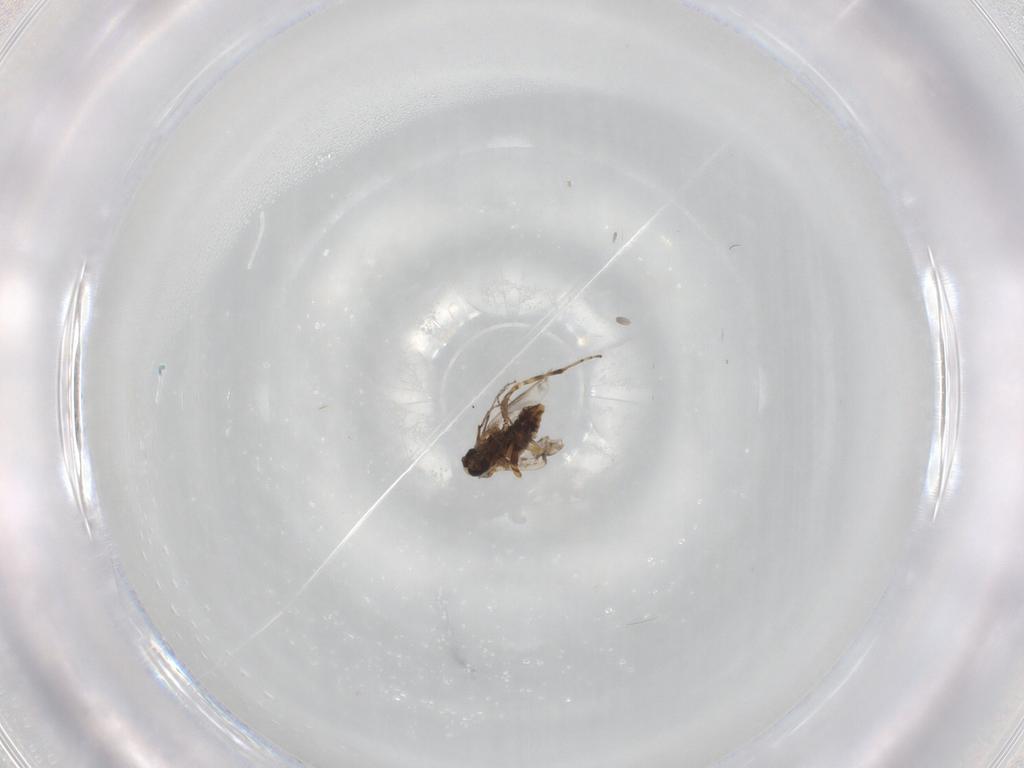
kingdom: Animalia
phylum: Arthropoda
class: Insecta
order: Diptera
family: Ceratopogonidae
